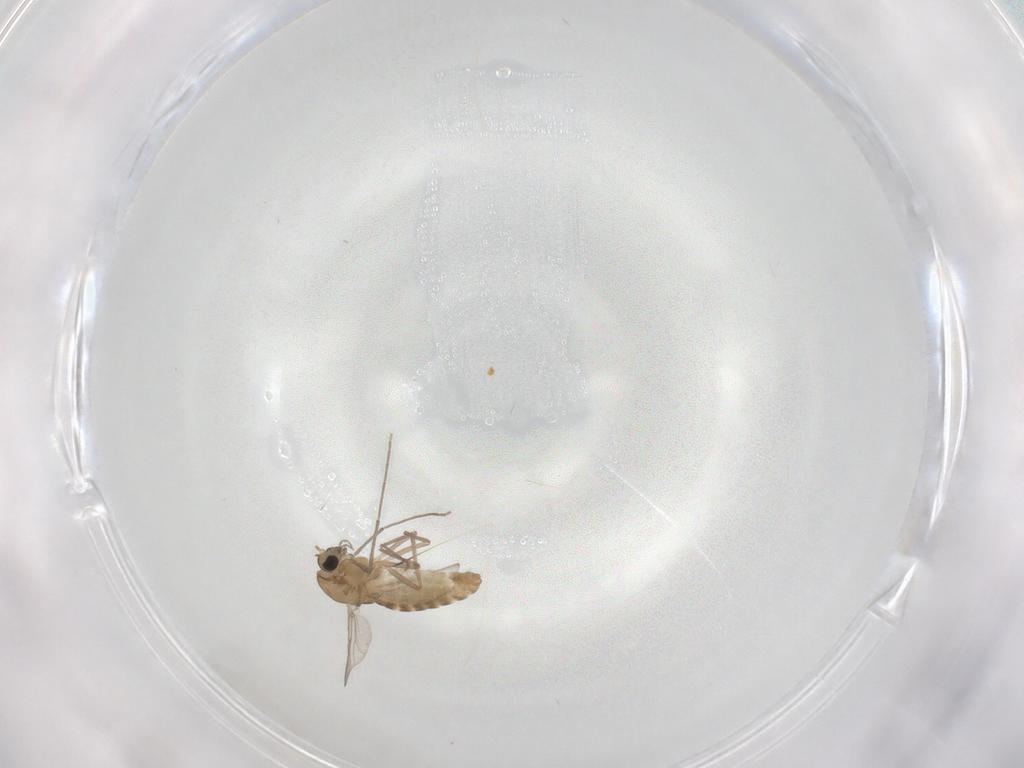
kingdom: Animalia
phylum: Arthropoda
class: Insecta
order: Diptera
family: Chironomidae
